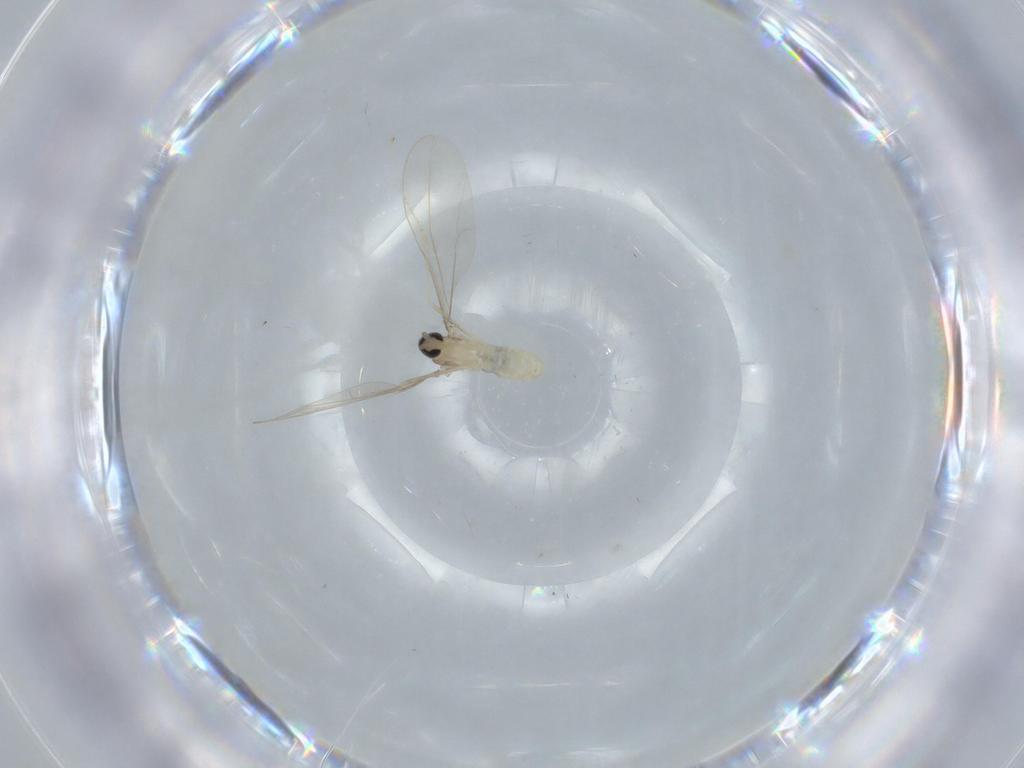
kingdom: Animalia
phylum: Arthropoda
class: Insecta
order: Diptera
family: Cecidomyiidae
